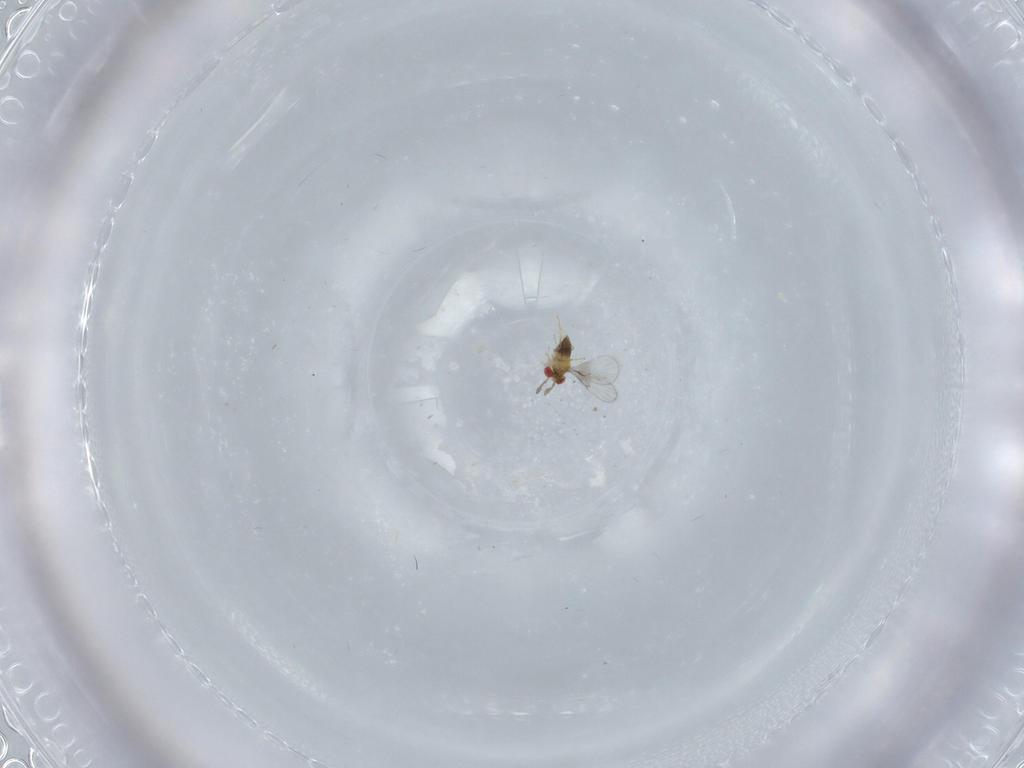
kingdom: Animalia
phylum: Arthropoda
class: Insecta
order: Hymenoptera
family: Trichogrammatidae
